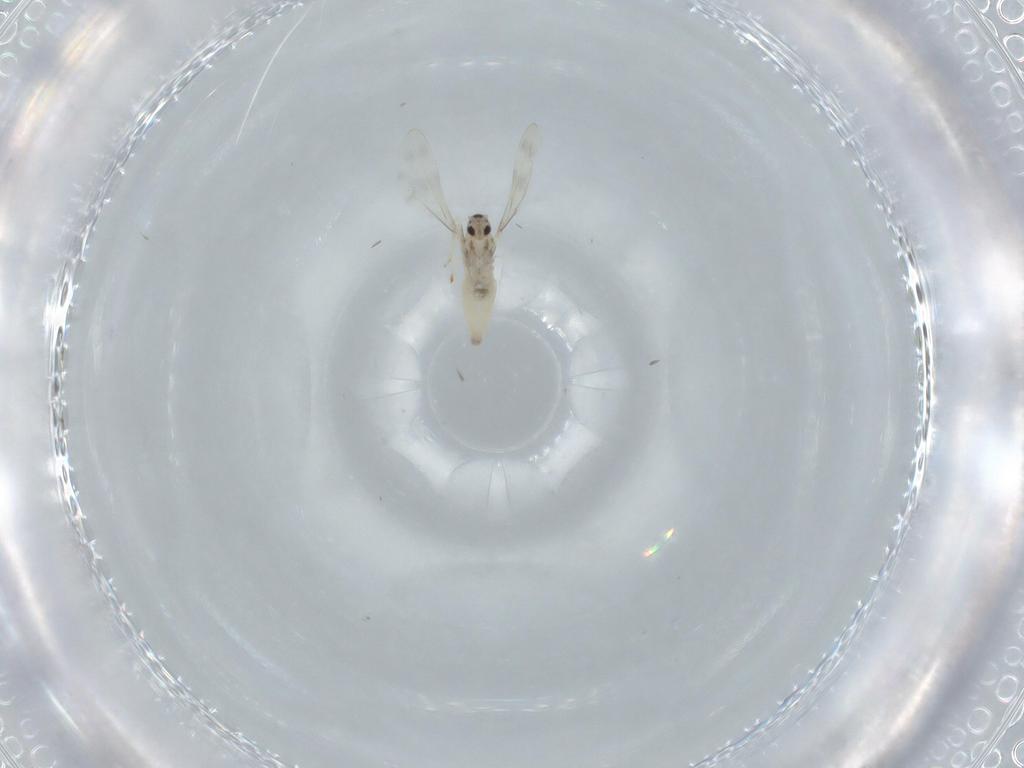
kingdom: Animalia
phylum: Arthropoda
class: Insecta
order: Diptera
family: Cecidomyiidae
